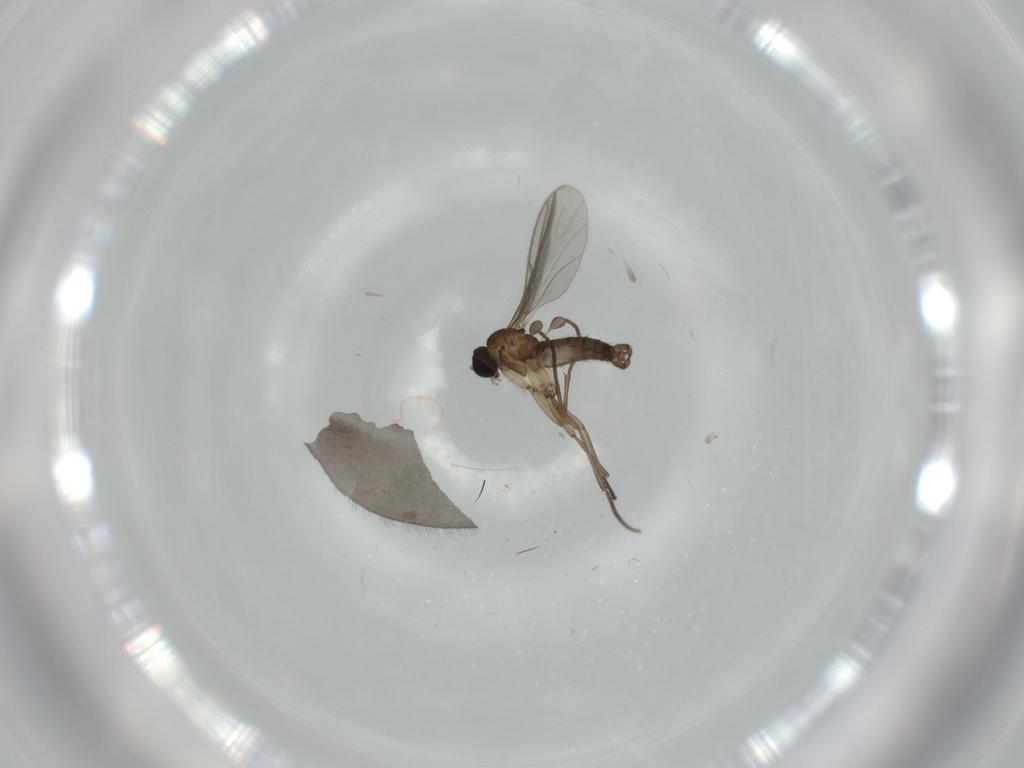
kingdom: Animalia
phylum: Arthropoda
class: Insecta
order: Diptera
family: Sciaridae
